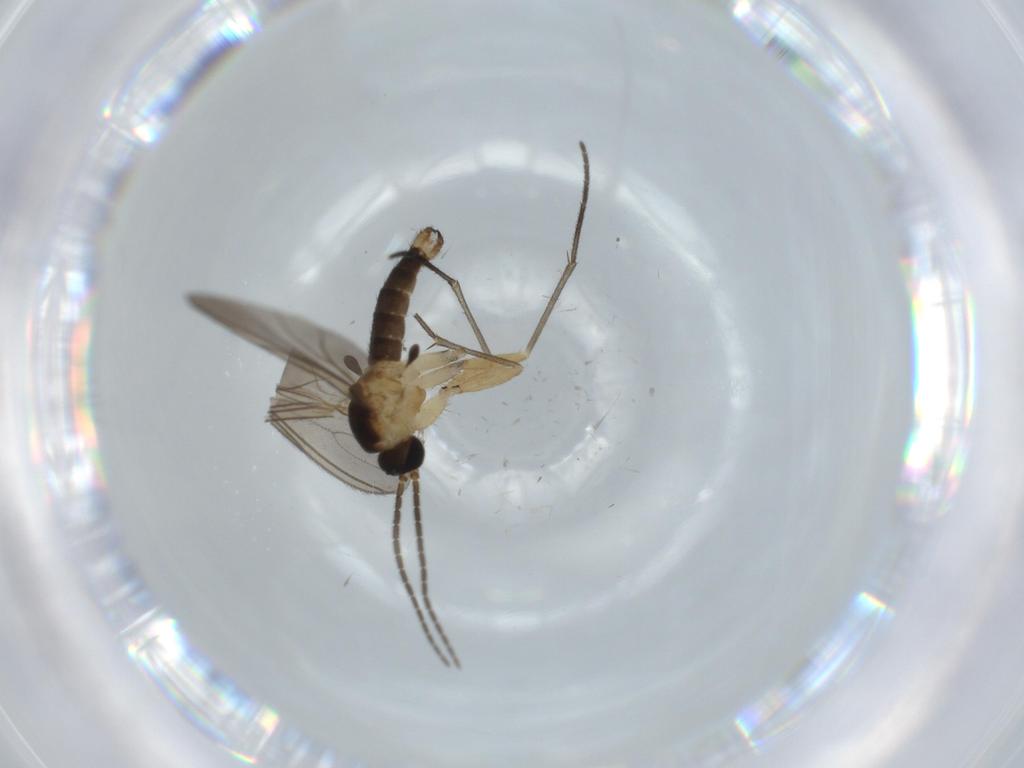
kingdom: Animalia
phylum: Arthropoda
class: Insecta
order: Diptera
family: Sciaridae
